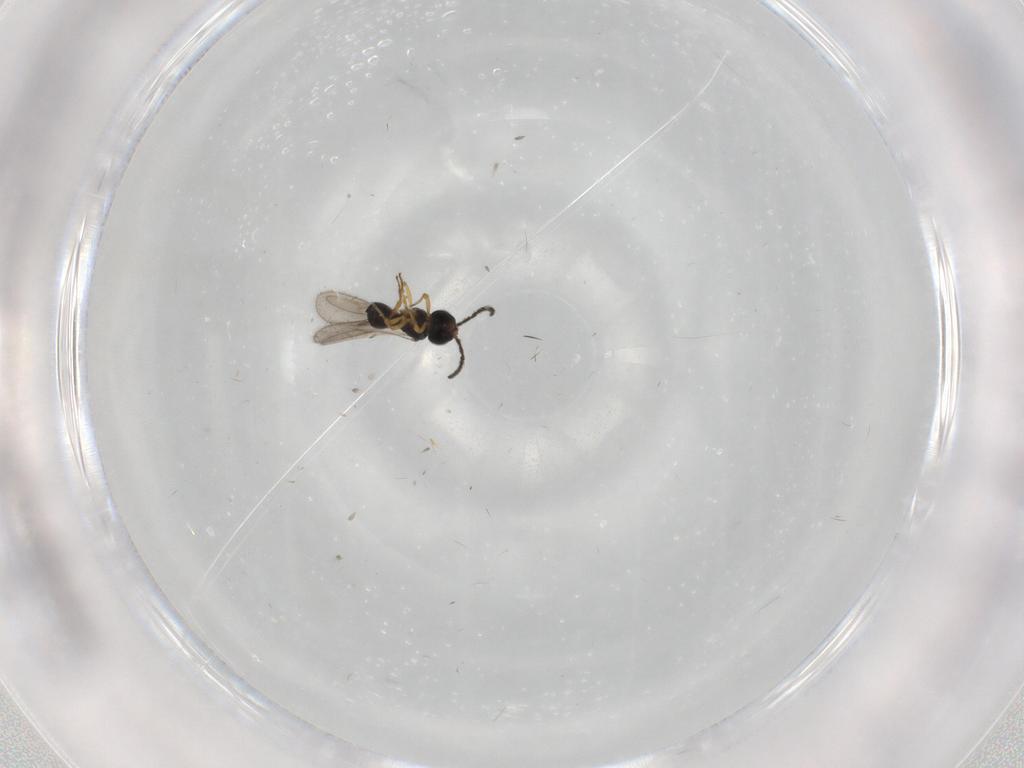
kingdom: Animalia
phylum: Arthropoda
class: Insecta
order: Hymenoptera
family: Scelionidae
